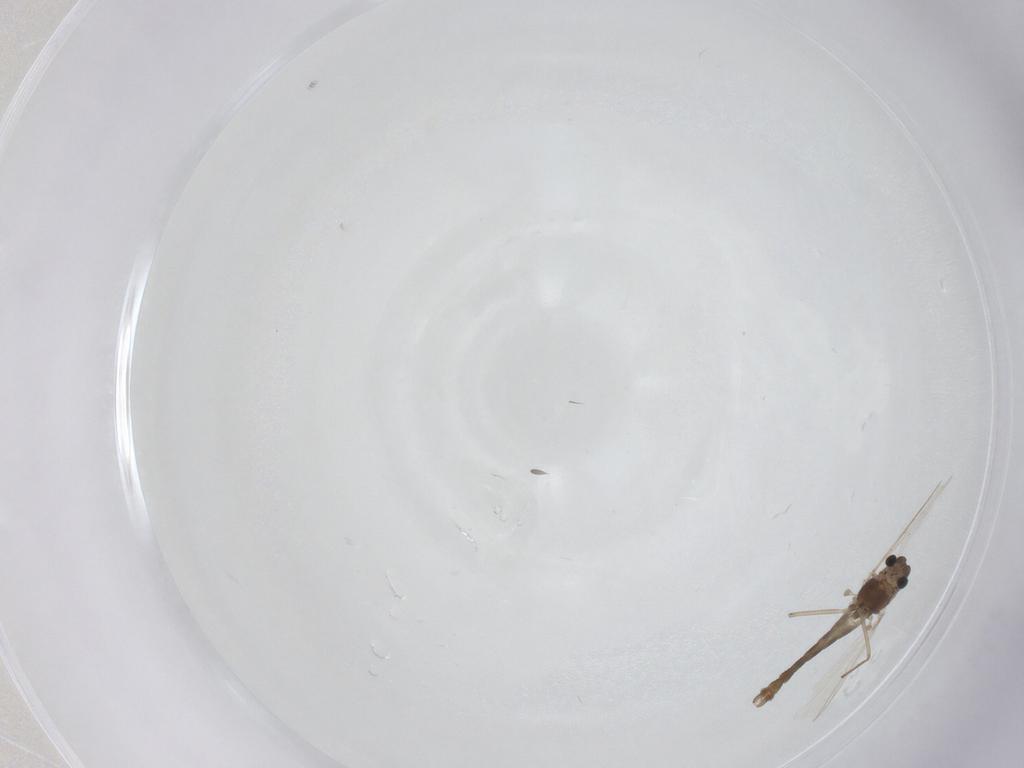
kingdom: Animalia
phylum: Arthropoda
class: Insecta
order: Diptera
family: Chironomidae
